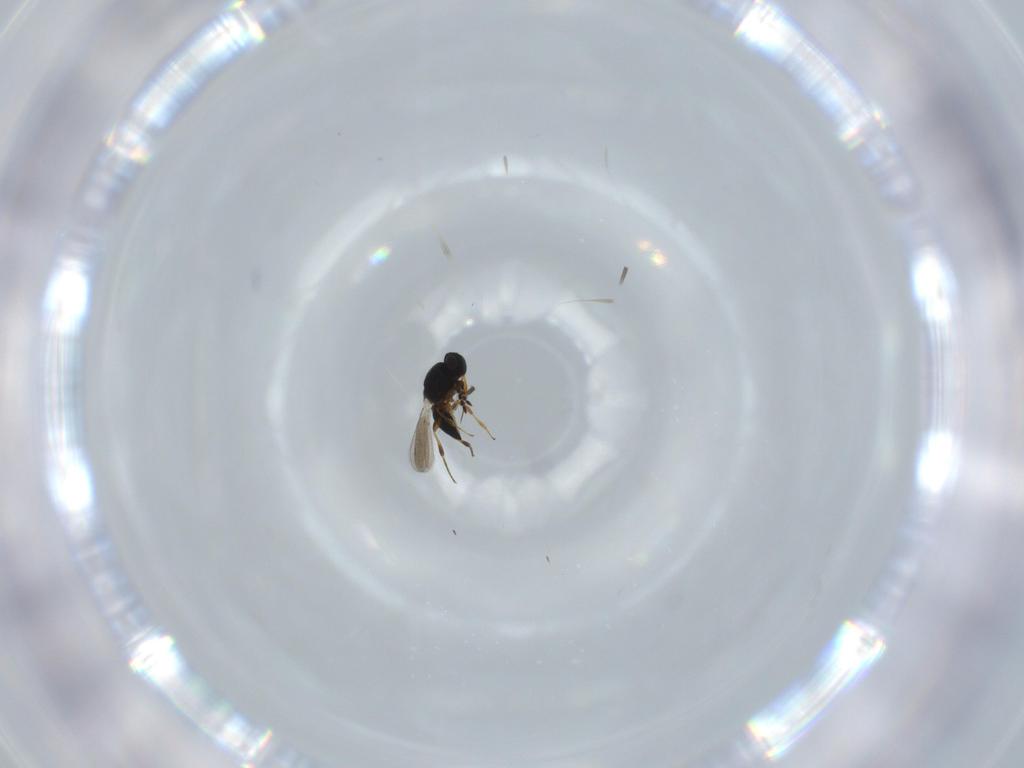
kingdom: Animalia
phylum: Arthropoda
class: Insecta
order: Hymenoptera
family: Platygastridae
